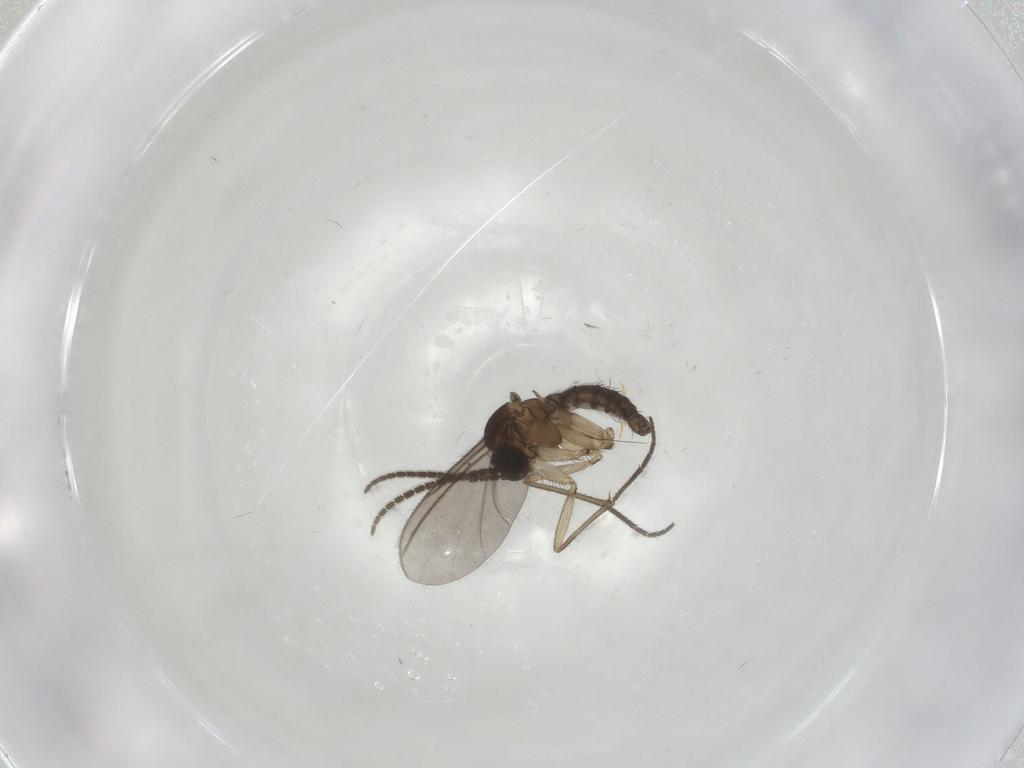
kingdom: Animalia
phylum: Arthropoda
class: Insecta
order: Diptera
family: Sciaridae
